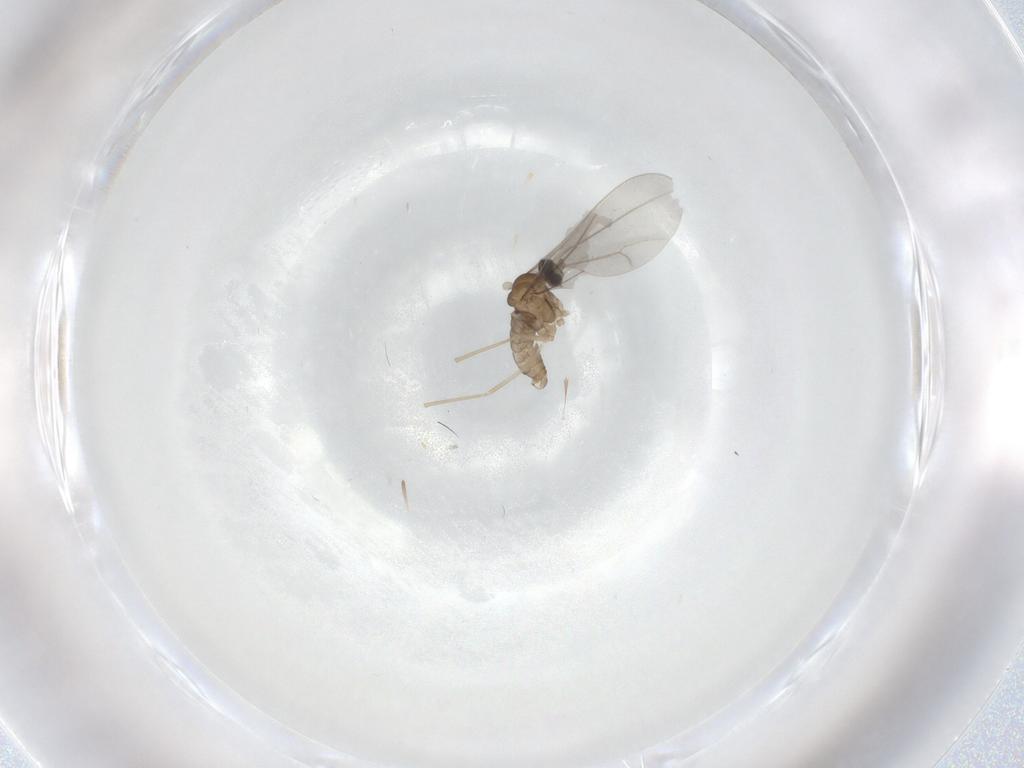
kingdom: Animalia
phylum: Arthropoda
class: Insecta
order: Diptera
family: Cecidomyiidae
